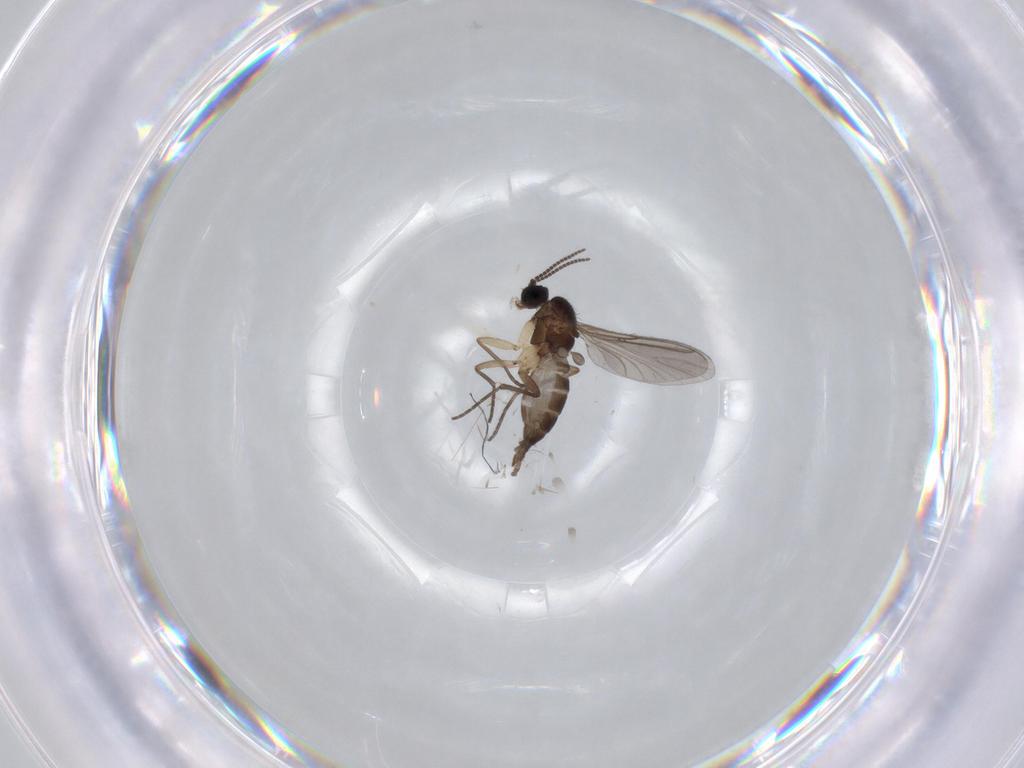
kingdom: Animalia
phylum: Arthropoda
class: Insecta
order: Diptera
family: Sciaridae
